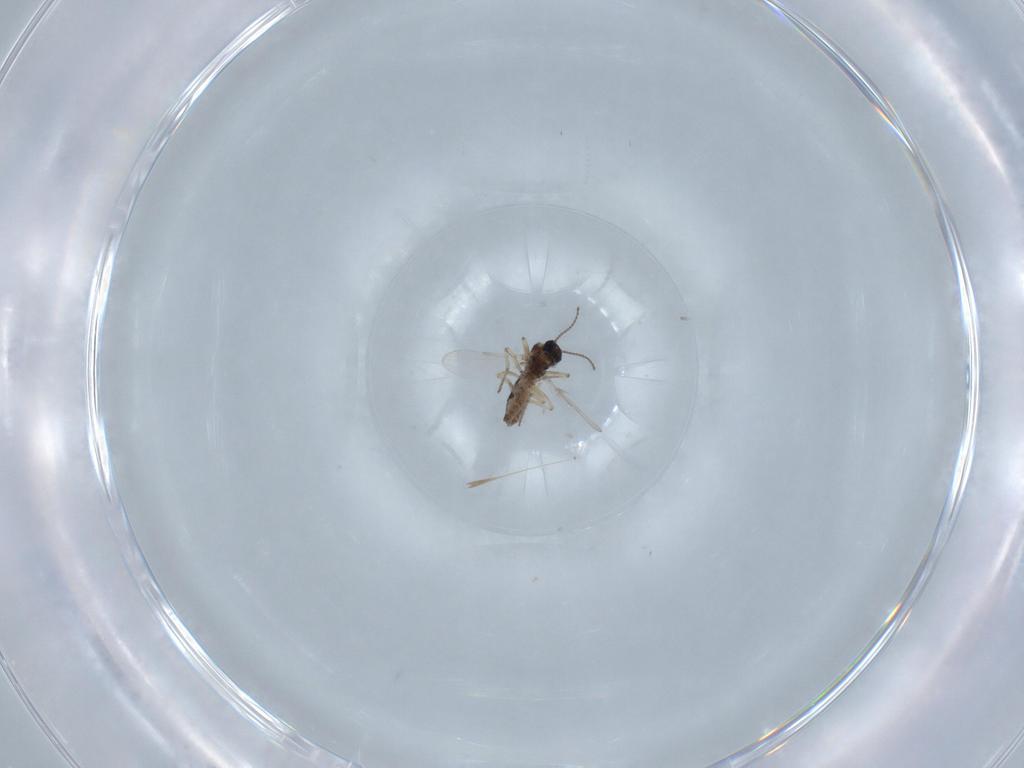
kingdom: Animalia
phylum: Arthropoda
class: Insecta
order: Diptera
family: Ceratopogonidae
